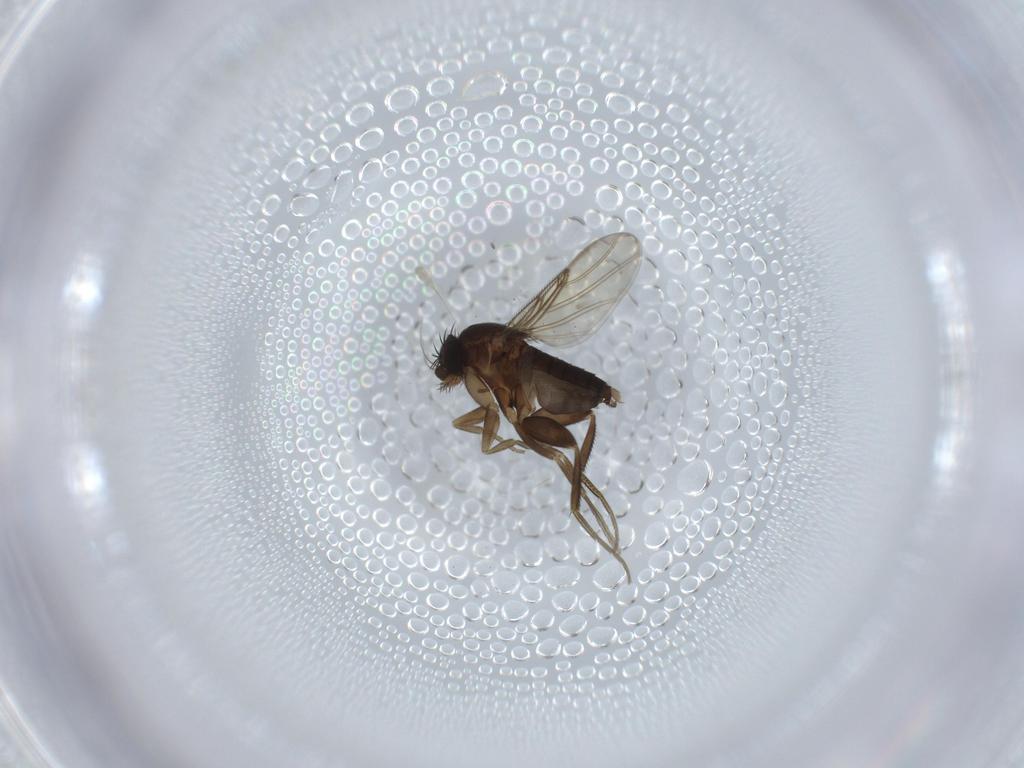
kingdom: Animalia
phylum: Arthropoda
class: Insecta
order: Diptera
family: Phoridae
